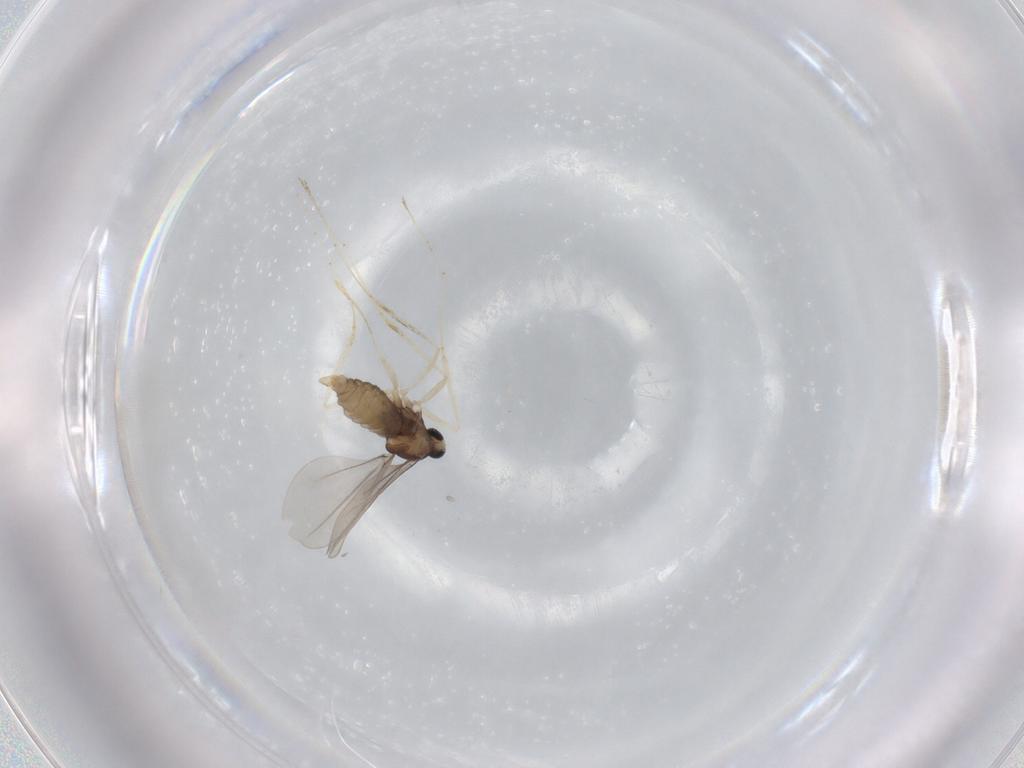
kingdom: Animalia
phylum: Arthropoda
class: Insecta
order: Diptera
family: Cecidomyiidae
